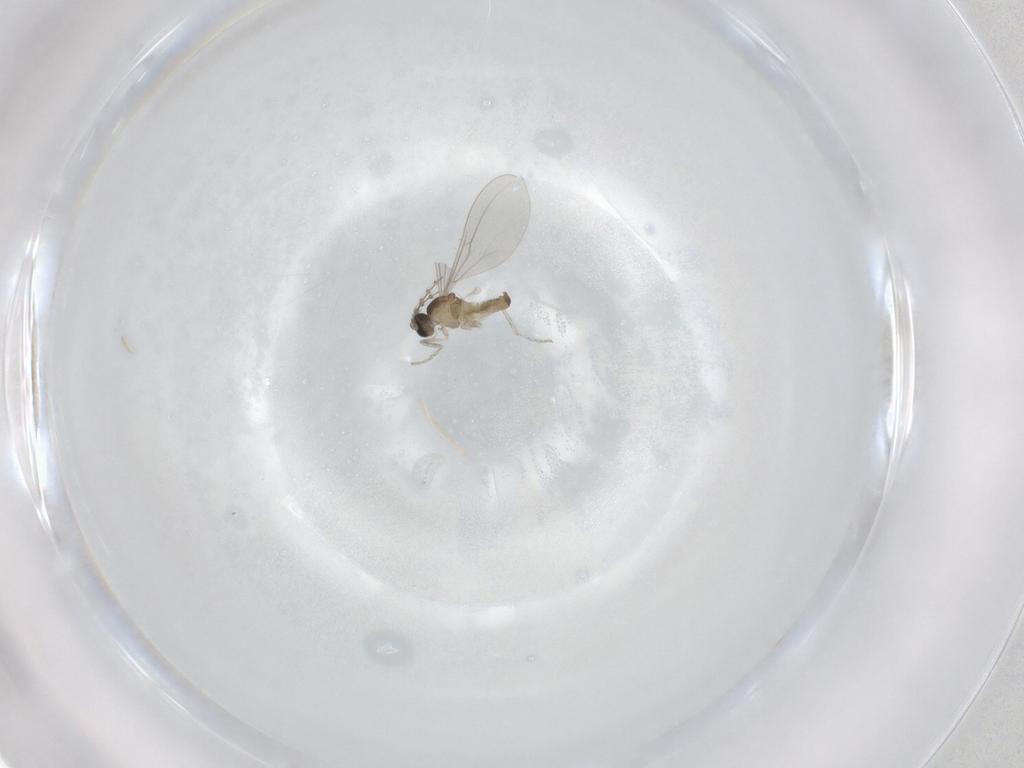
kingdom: Animalia
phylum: Arthropoda
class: Insecta
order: Diptera
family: Cecidomyiidae
